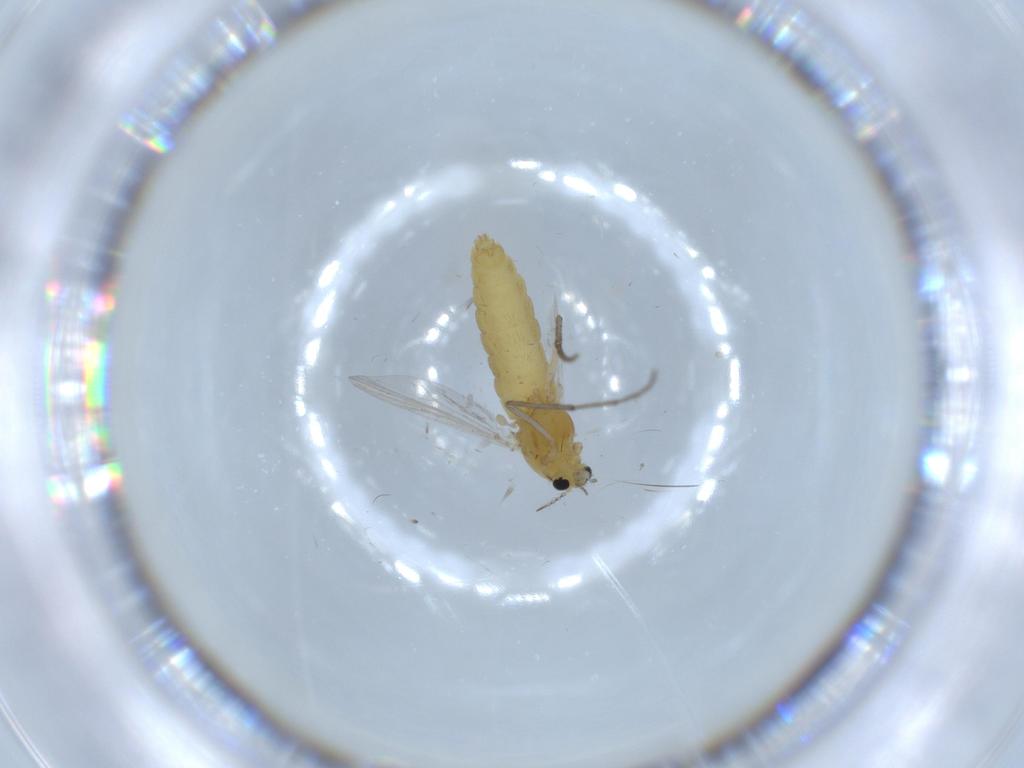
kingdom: Animalia
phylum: Arthropoda
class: Insecta
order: Diptera
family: Chironomidae
